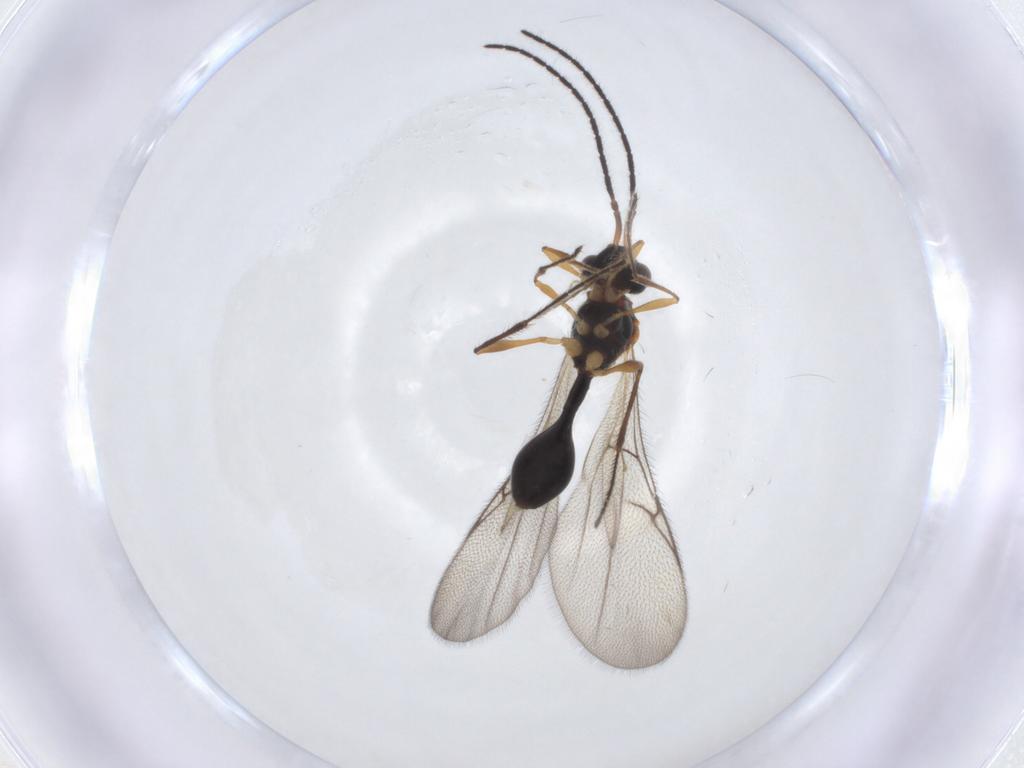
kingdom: Animalia
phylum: Arthropoda
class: Insecta
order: Hymenoptera
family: Diapriidae
